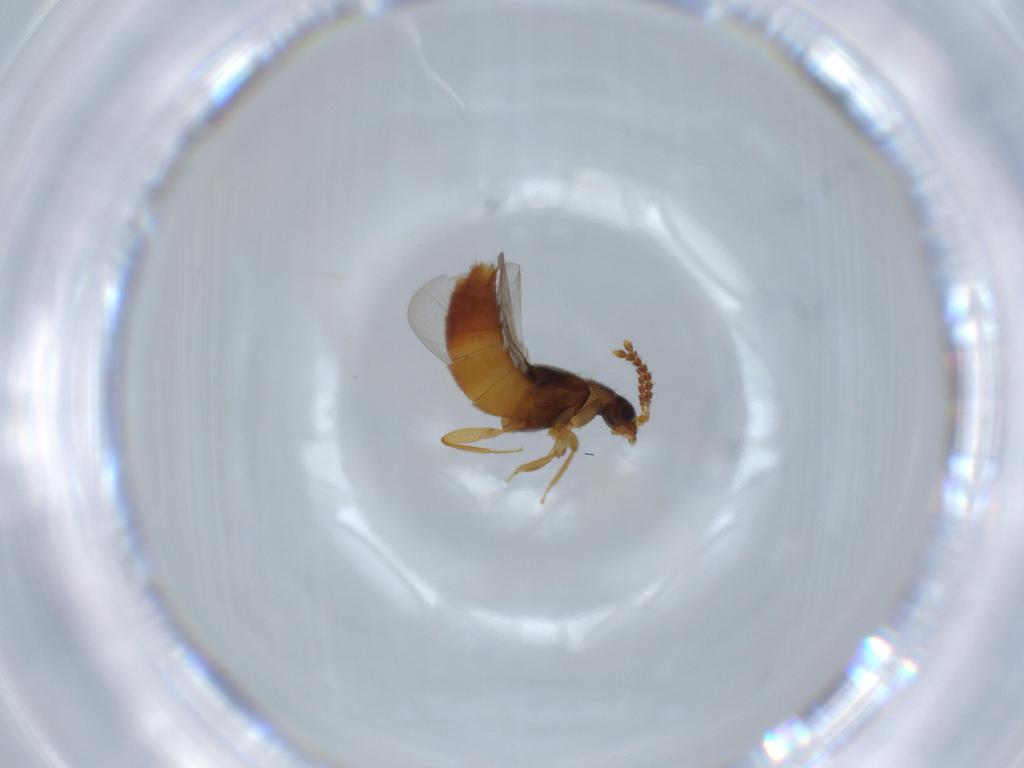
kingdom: Animalia
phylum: Arthropoda
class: Insecta
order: Coleoptera
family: Staphylinidae
